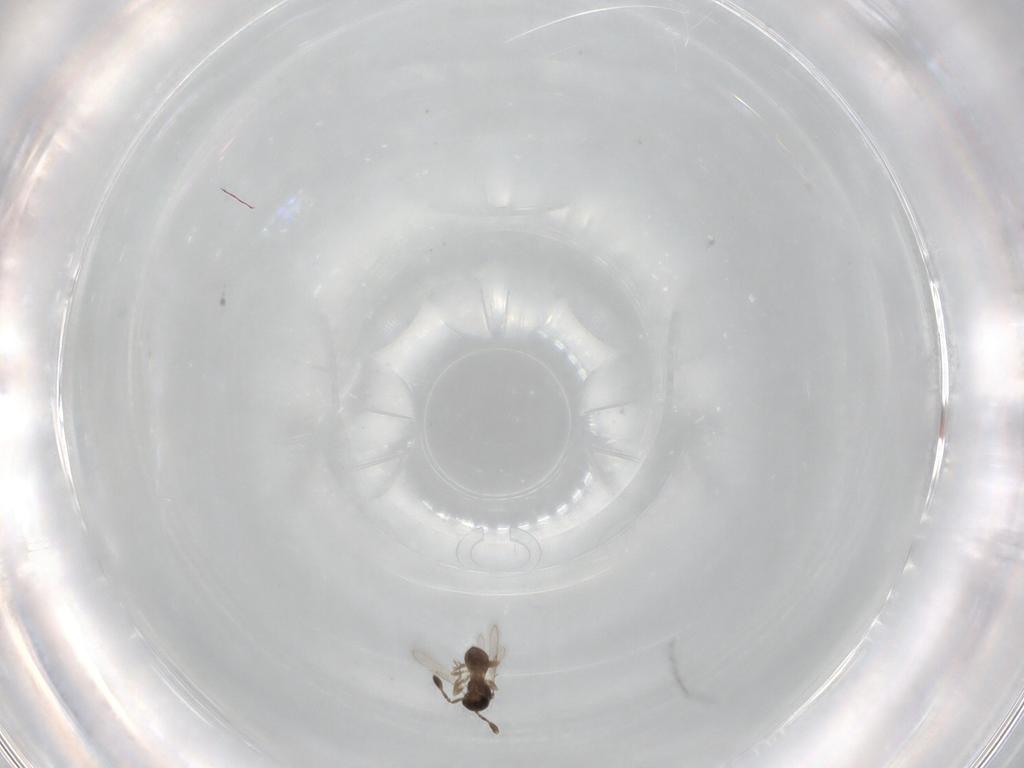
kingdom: Animalia
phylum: Arthropoda
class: Insecta
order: Hymenoptera
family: Scelionidae
